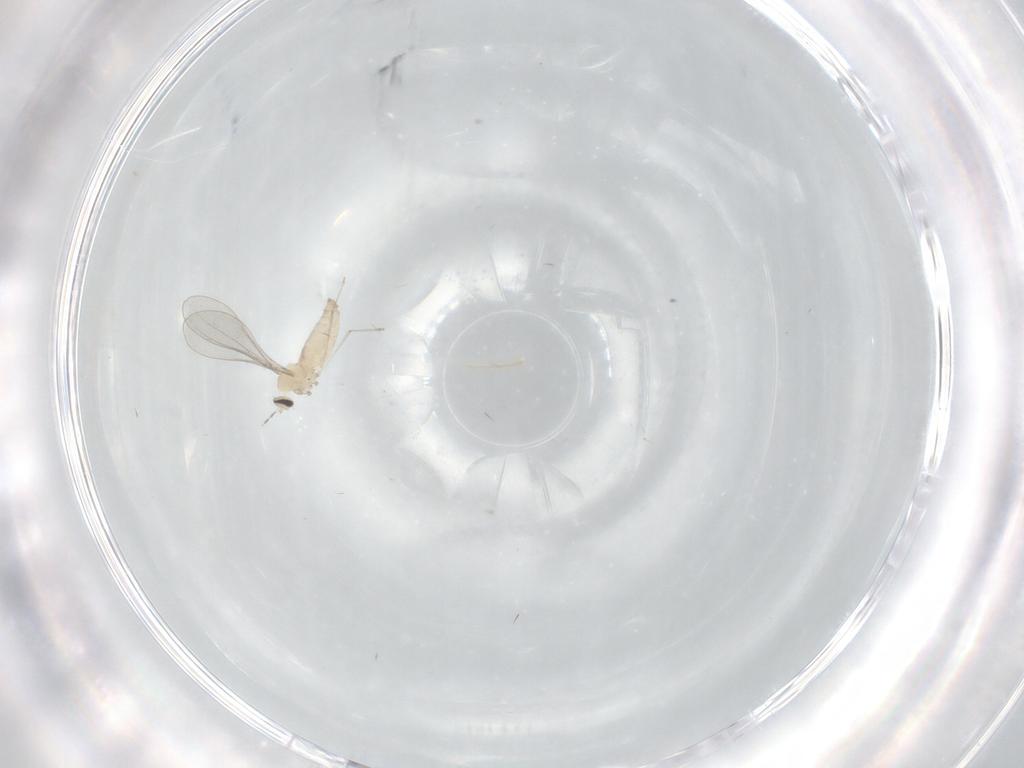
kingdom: Animalia
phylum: Arthropoda
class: Insecta
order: Diptera
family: Cecidomyiidae
